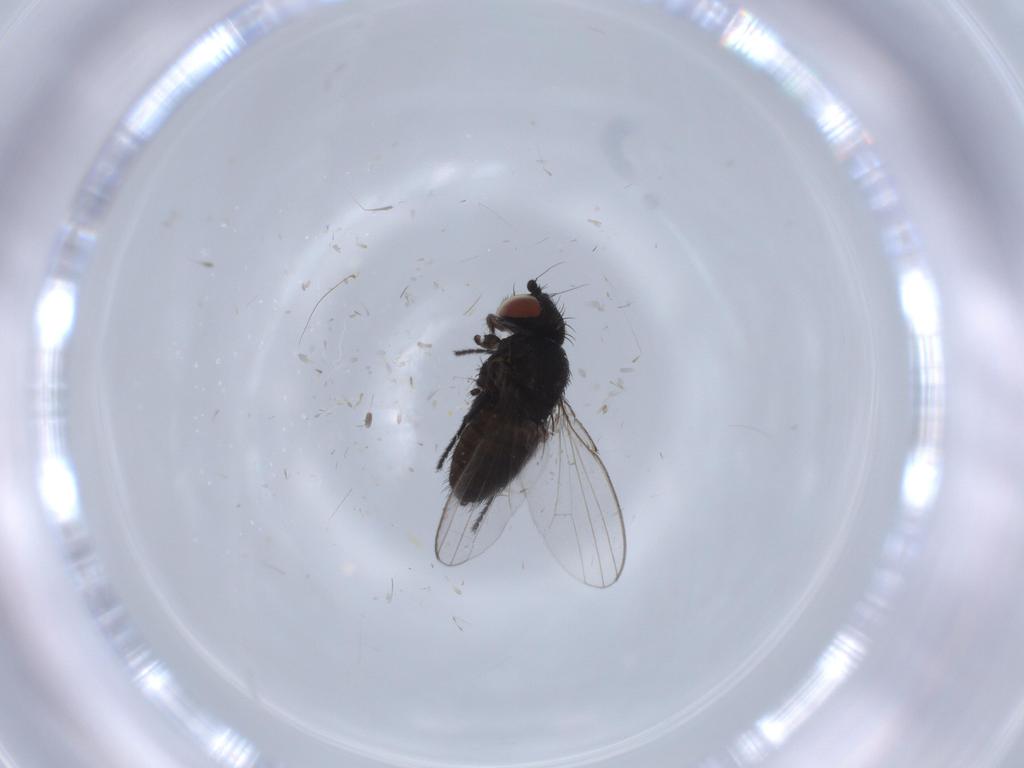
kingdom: Animalia
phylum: Arthropoda
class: Insecta
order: Diptera
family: Milichiidae
